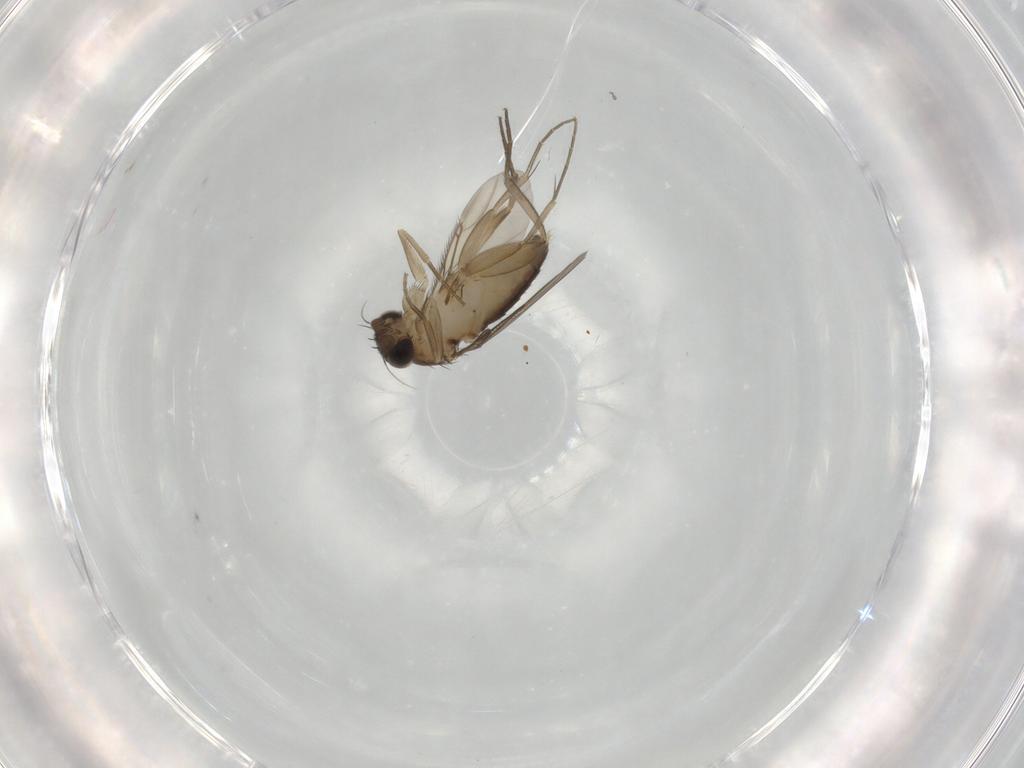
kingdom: Animalia
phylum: Arthropoda
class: Insecta
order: Diptera
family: Phoridae
